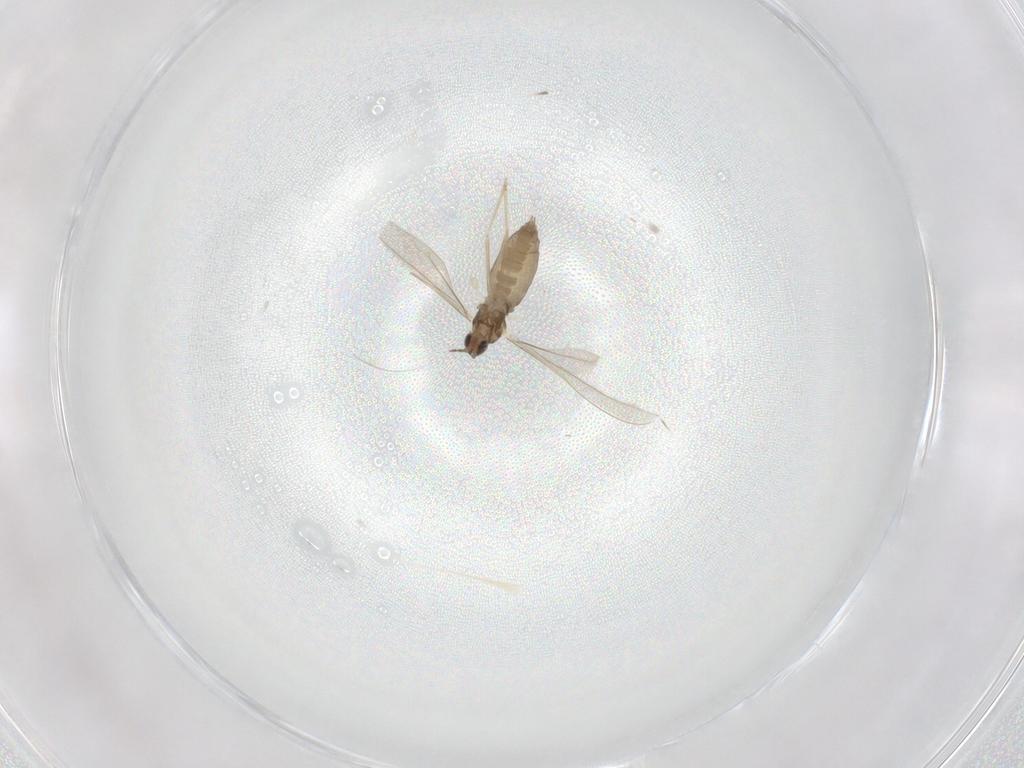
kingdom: Animalia
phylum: Arthropoda
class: Insecta
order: Diptera
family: Cecidomyiidae
